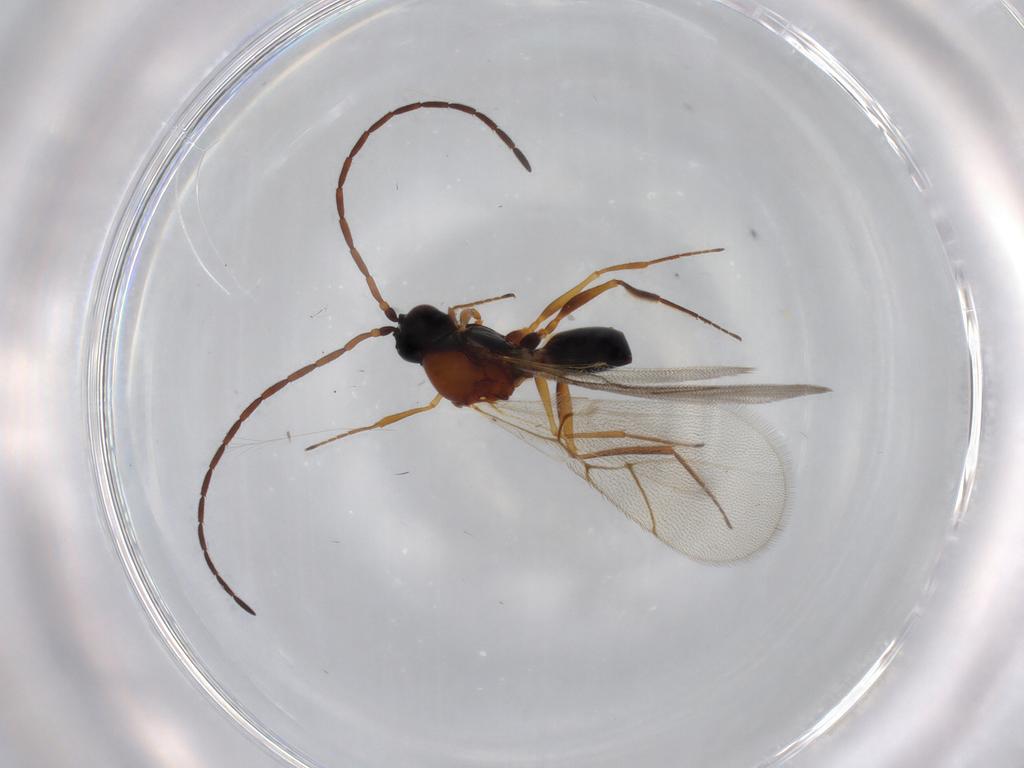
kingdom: Animalia
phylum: Arthropoda
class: Insecta
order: Hymenoptera
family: Figitidae
